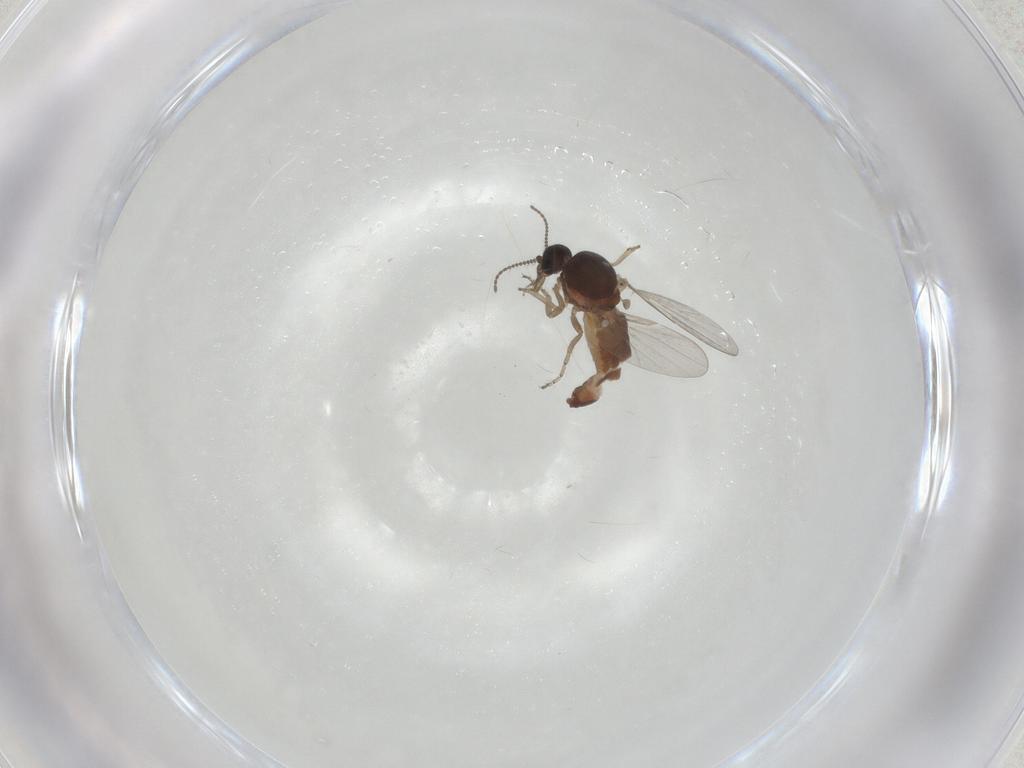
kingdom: Animalia
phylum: Arthropoda
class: Insecta
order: Diptera
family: Ceratopogonidae
